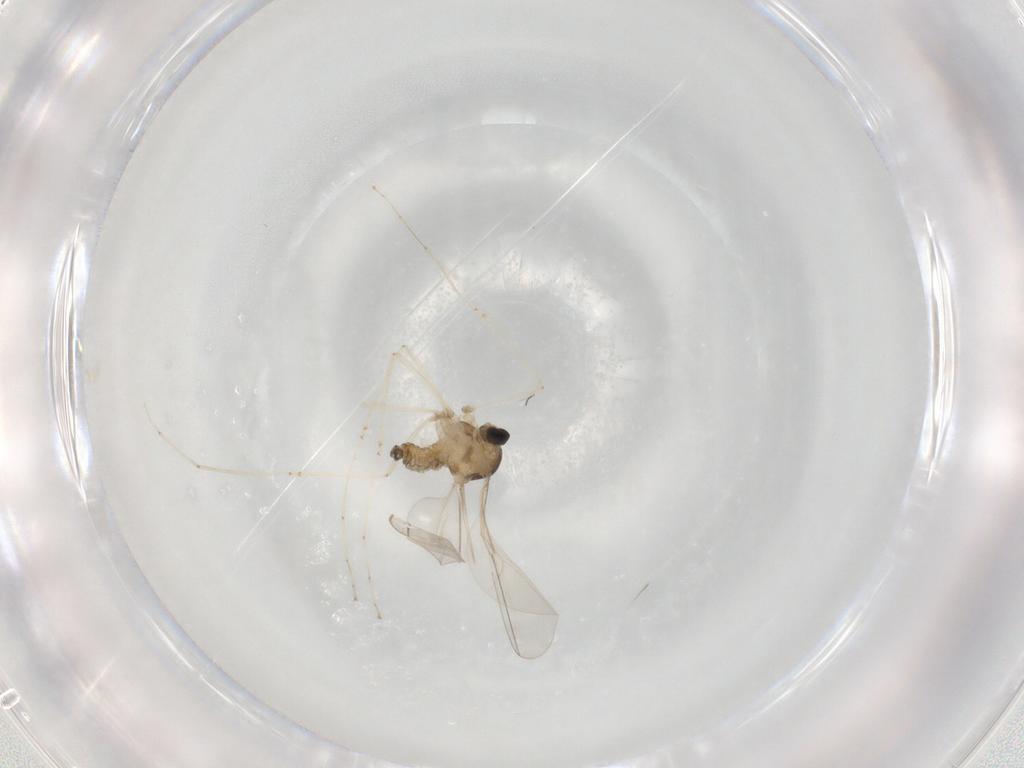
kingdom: Animalia
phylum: Arthropoda
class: Insecta
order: Diptera
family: Cecidomyiidae
